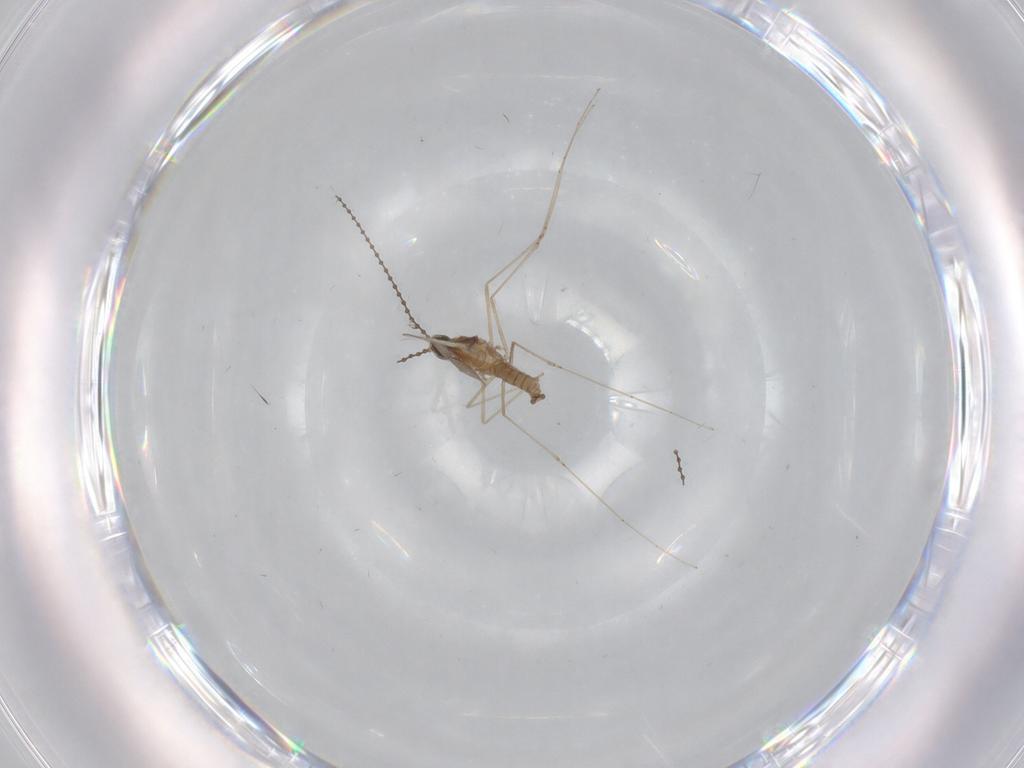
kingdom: Animalia
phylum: Arthropoda
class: Insecta
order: Diptera
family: Cecidomyiidae
